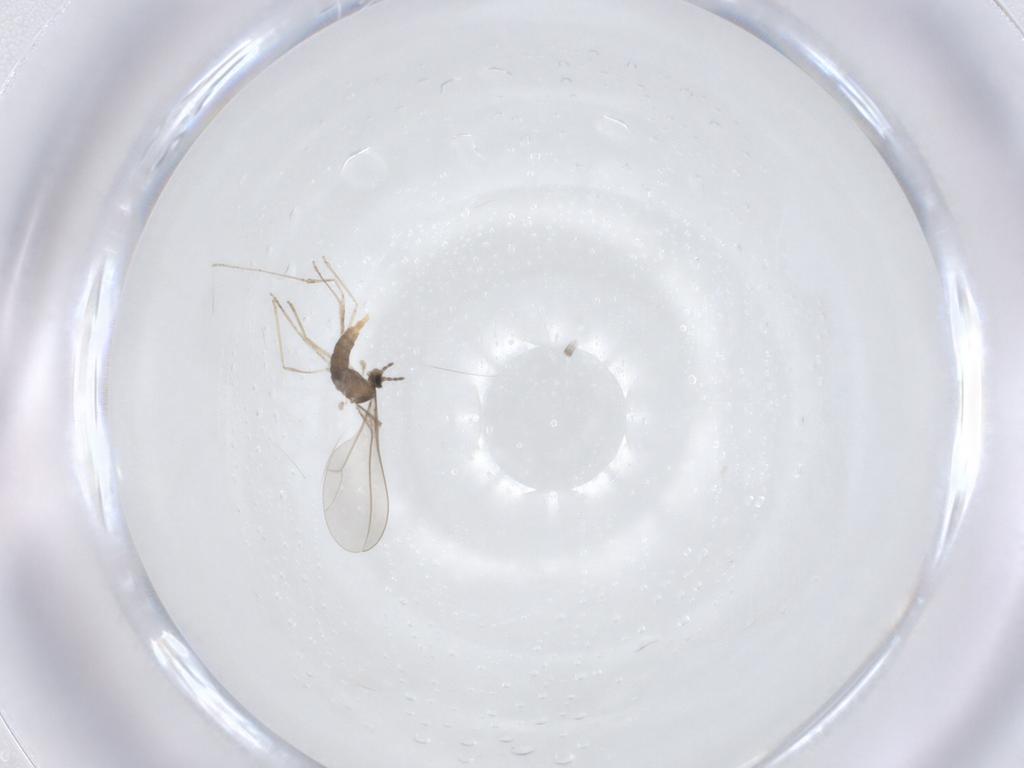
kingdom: Animalia
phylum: Arthropoda
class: Insecta
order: Diptera
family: Cecidomyiidae
